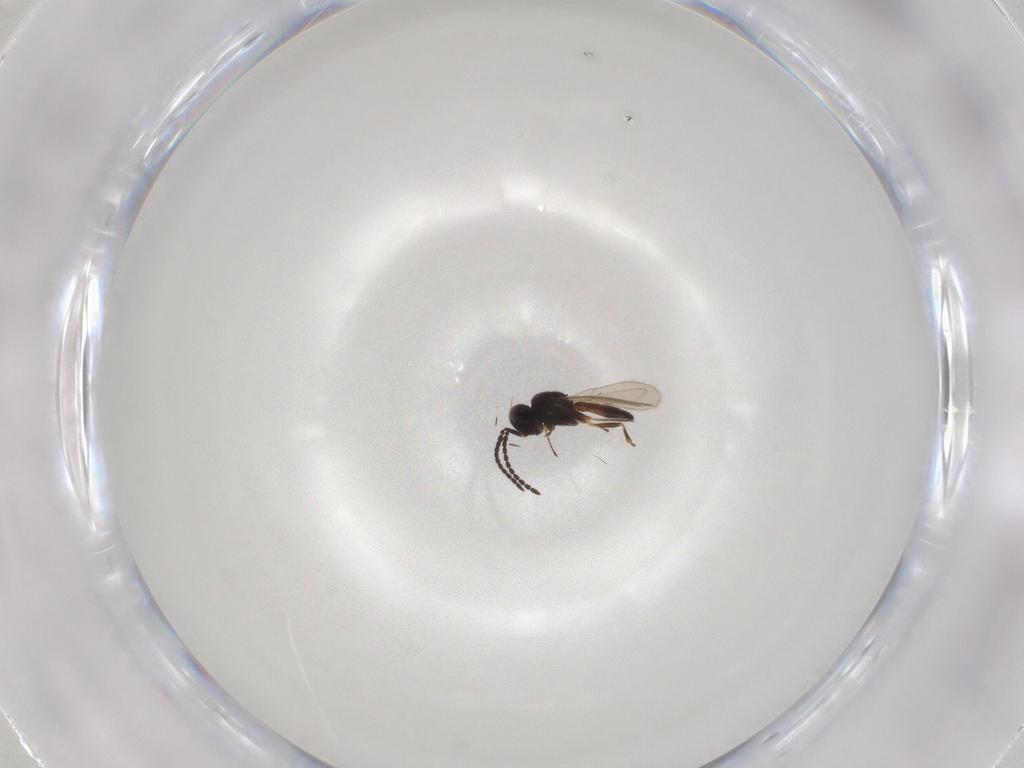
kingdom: Animalia
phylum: Arthropoda
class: Insecta
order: Hymenoptera
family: Scelionidae
